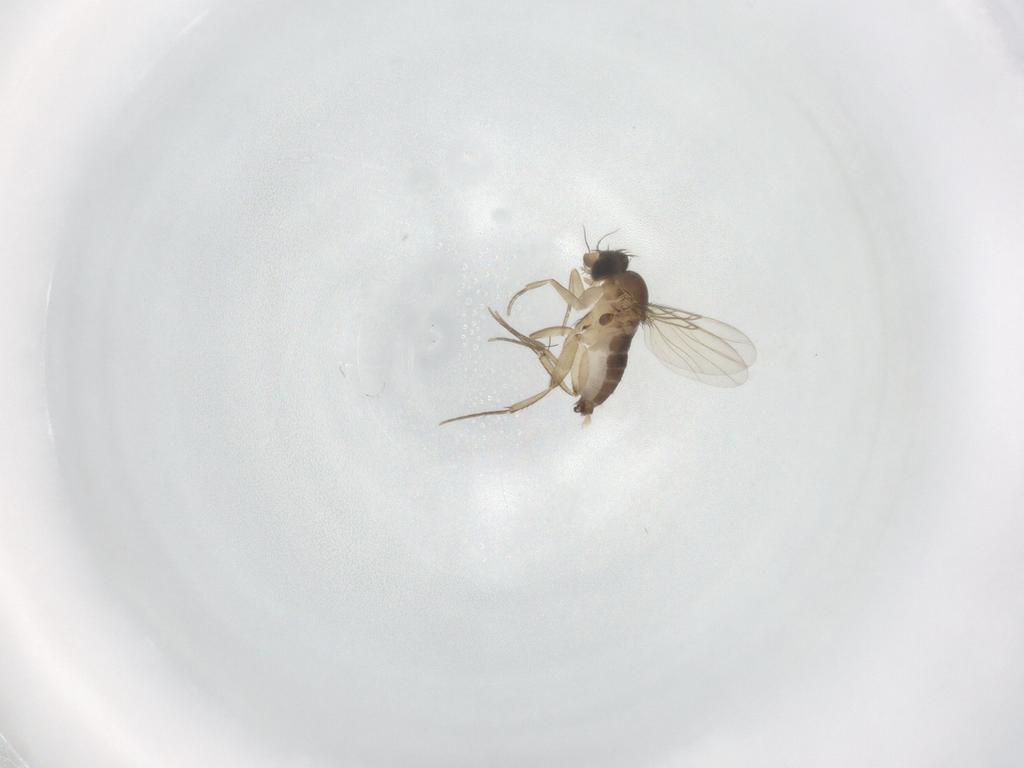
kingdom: Animalia
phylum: Arthropoda
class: Insecta
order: Diptera
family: Phoridae
